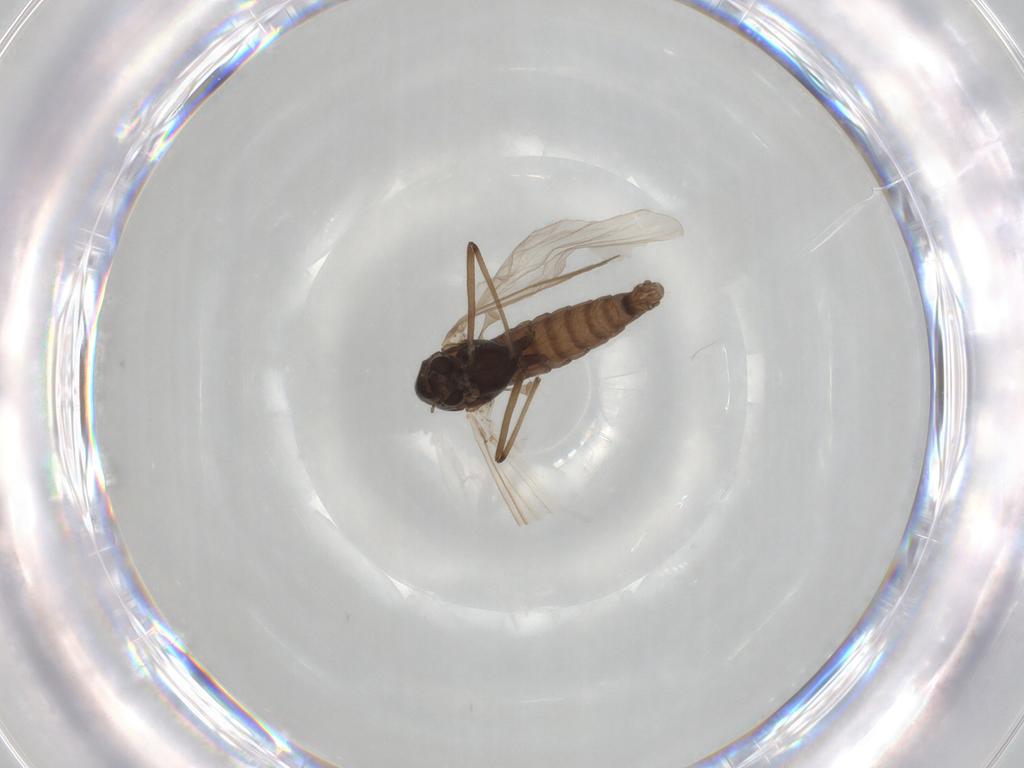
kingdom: Animalia
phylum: Arthropoda
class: Insecta
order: Diptera
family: Chironomidae
